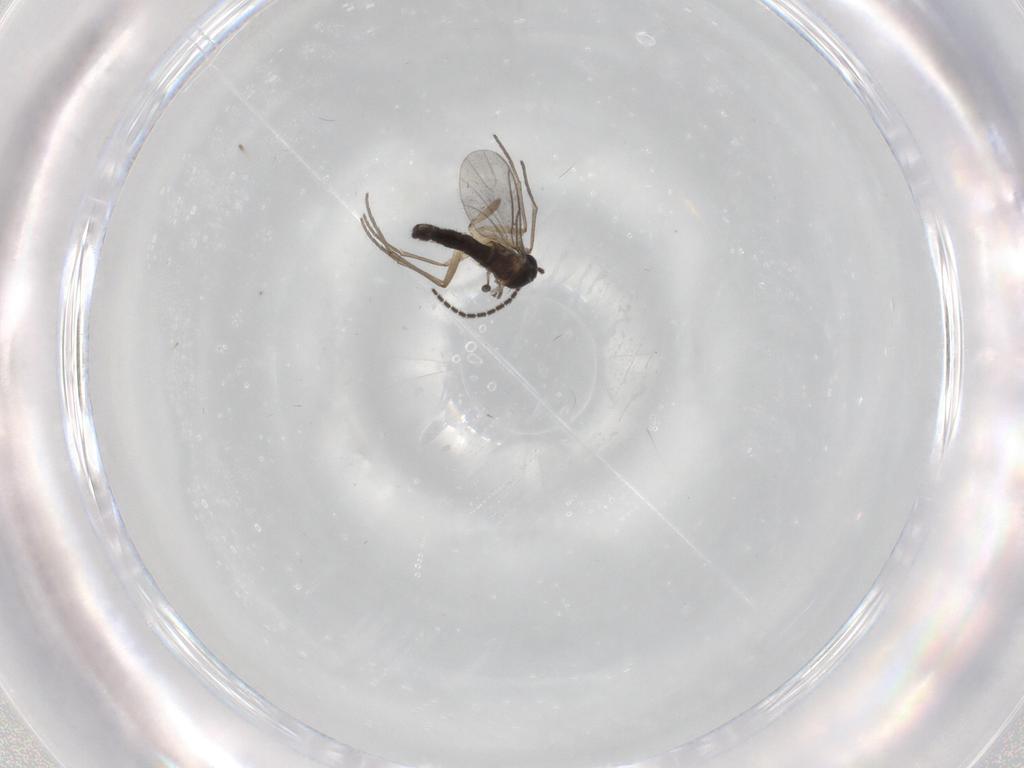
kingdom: Animalia
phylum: Arthropoda
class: Insecta
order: Diptera
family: Sciaridae
